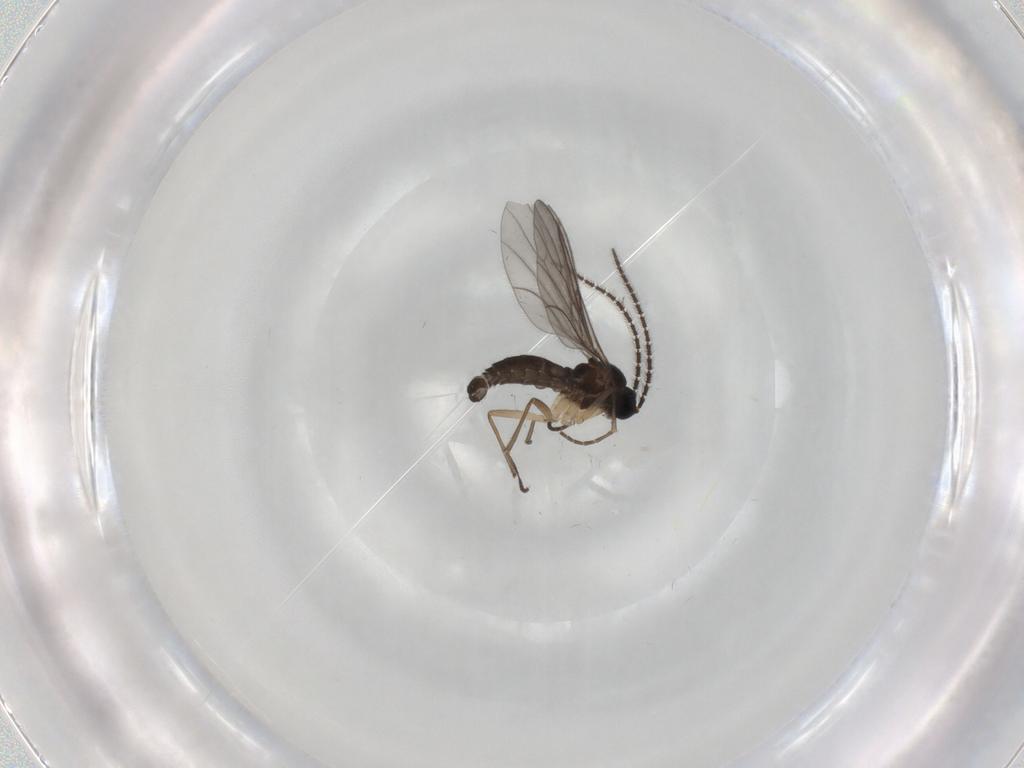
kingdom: Animalia
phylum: Arthropoda
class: Insecta
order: Diptera
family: Sciaridae
